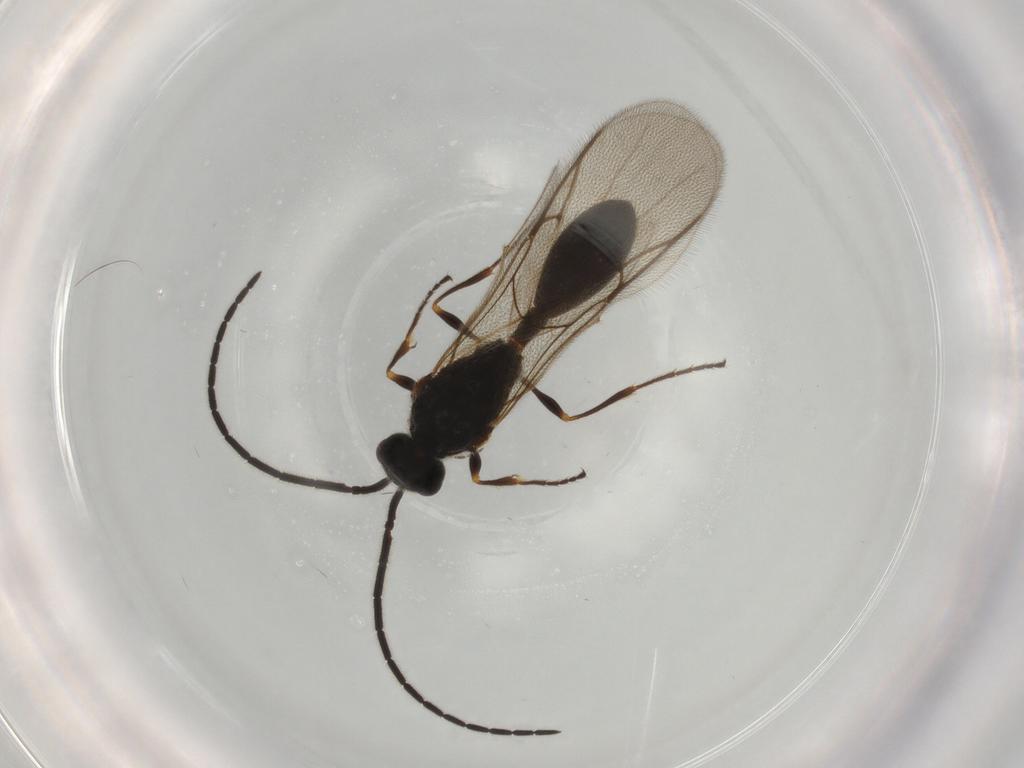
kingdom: Animalia
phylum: Arthropoda
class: Insecta
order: Hymenoptera
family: Diapriidae
